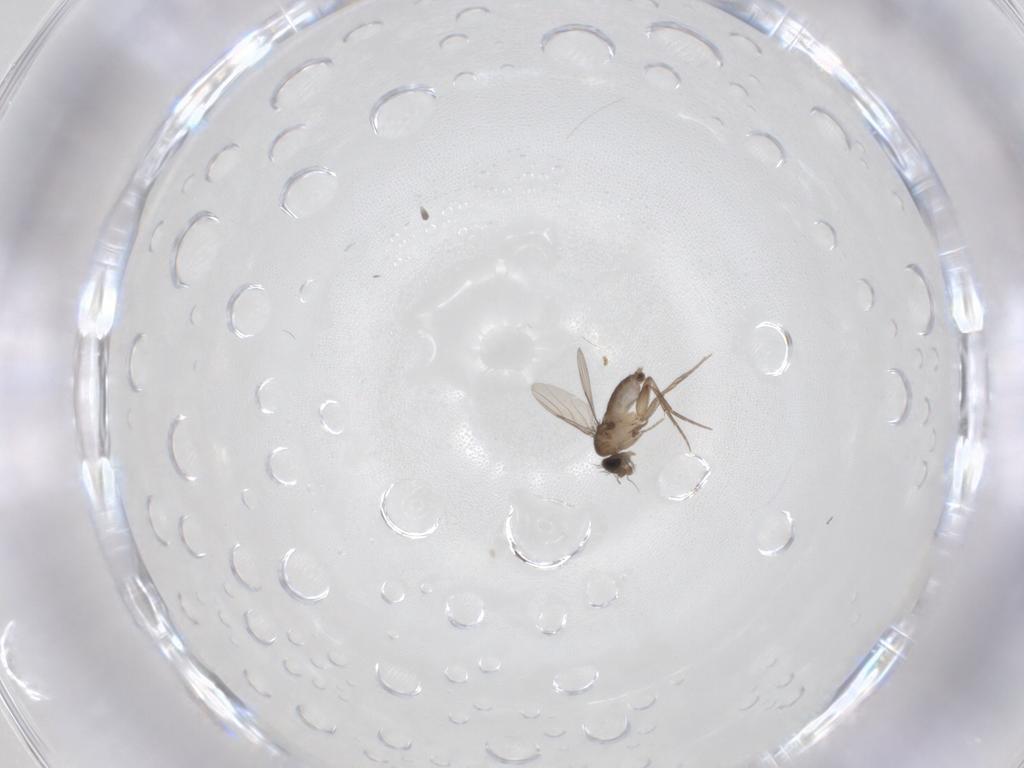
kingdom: Animalia
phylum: Arthropoda
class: Insecta
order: Diptera
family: Phoridae
